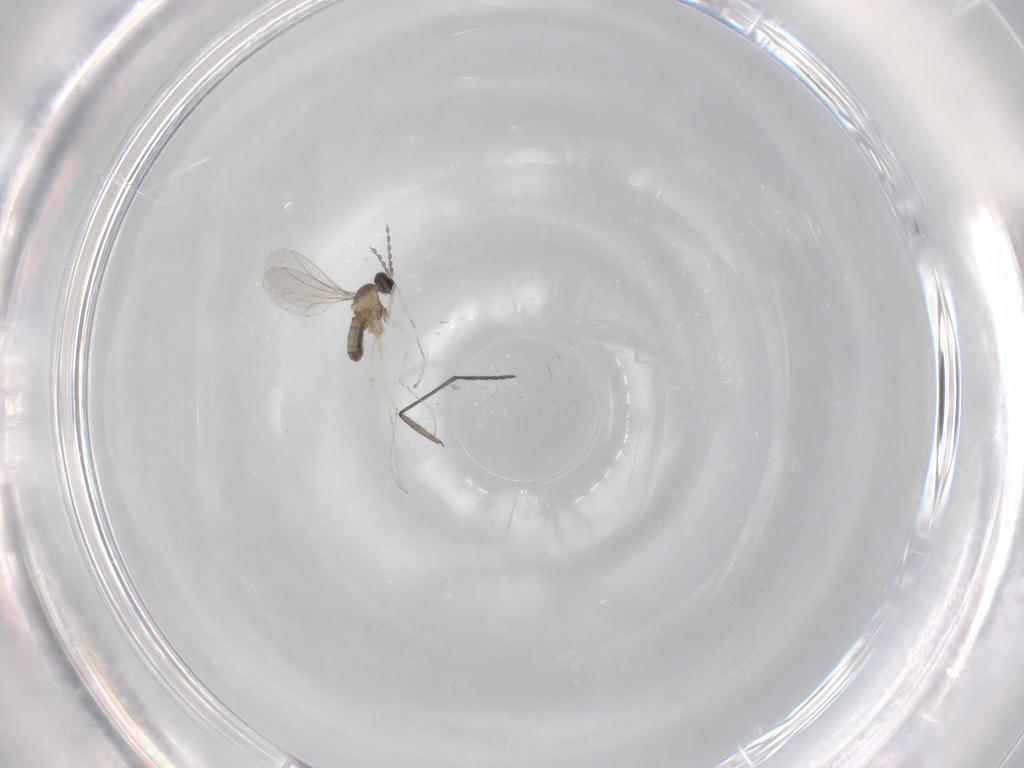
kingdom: Animalia
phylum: Arthropoda
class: Insecta
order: Diptera
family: Cecidomyiidae
